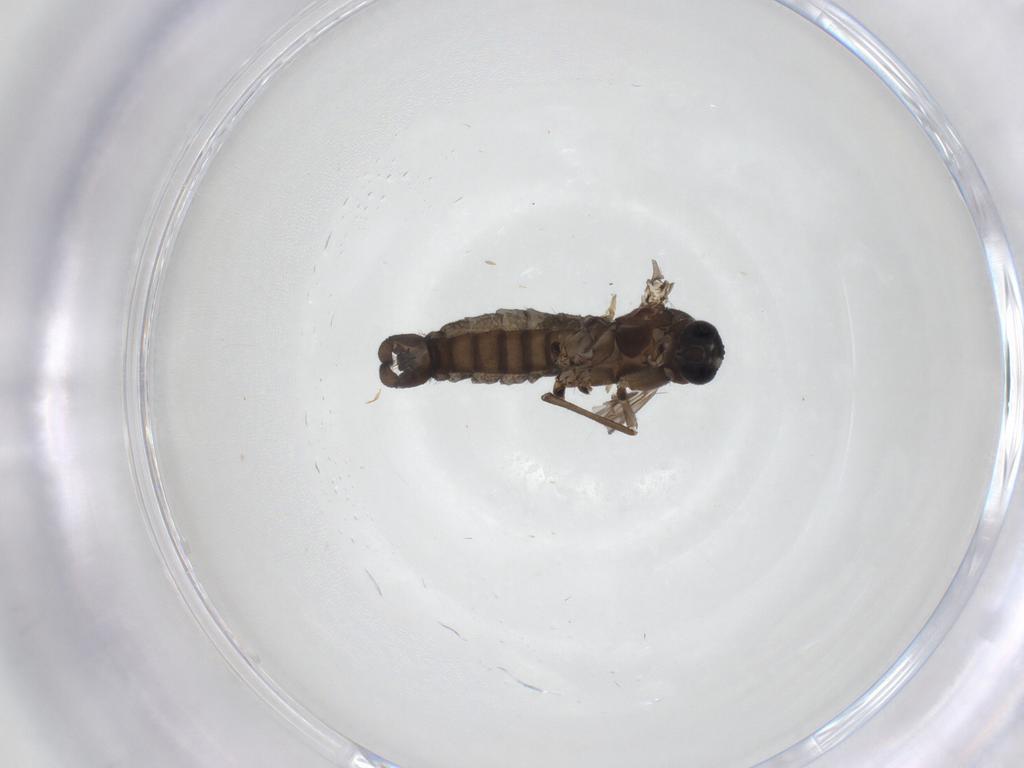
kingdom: Animalia
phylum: Arthropoda
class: Insecta
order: Diptera
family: Sciaridae
